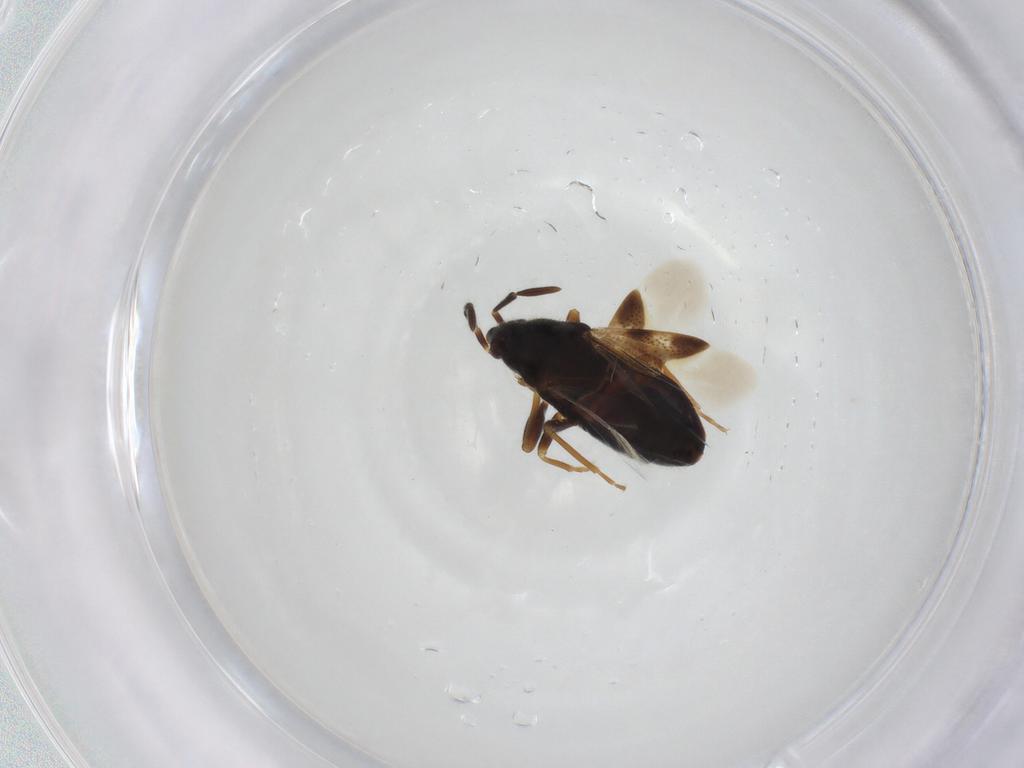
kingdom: Animalia
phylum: Arthropoda
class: Insecta
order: Hemiptera
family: Rhyparochromidae
